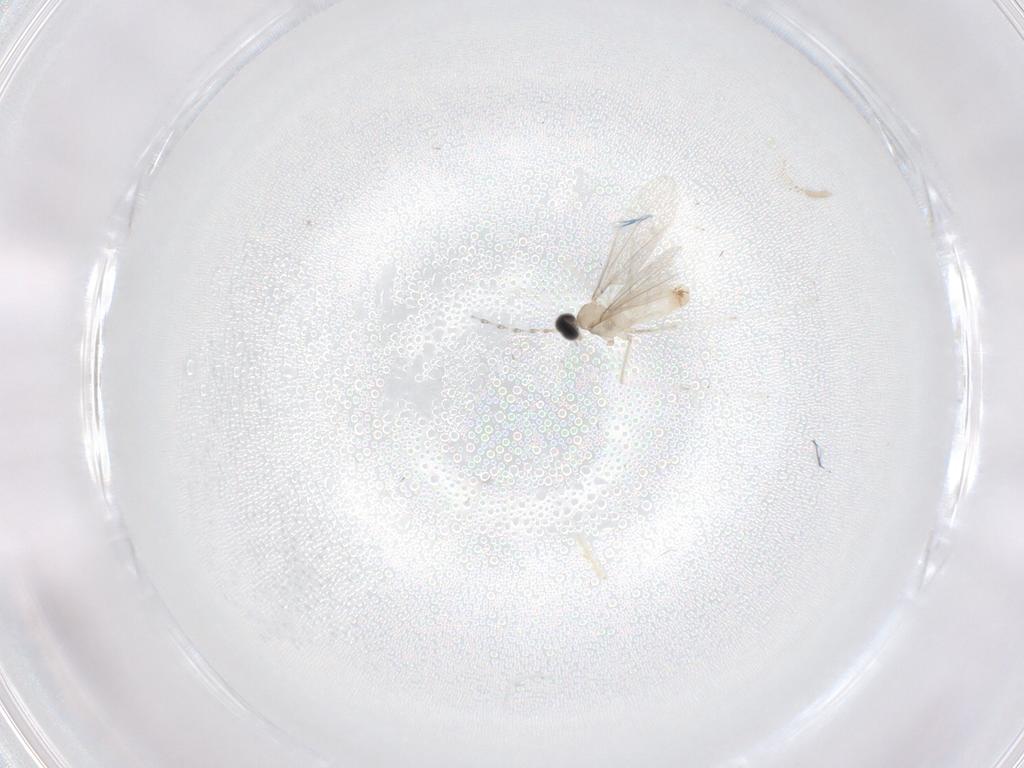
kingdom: Animalia
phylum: Arthropoda
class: Insecta
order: Diptera
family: Cecidomyiidae
